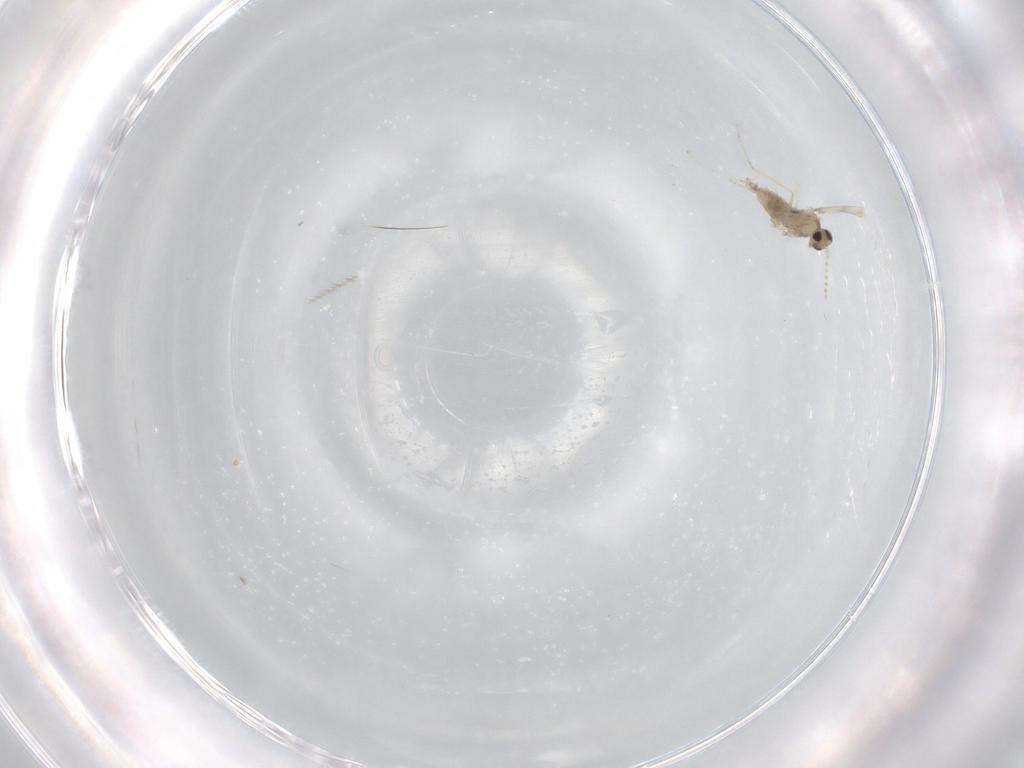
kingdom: Animalia
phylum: Arthropoda
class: Insecta
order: Diptera
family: Cecidomyiidae
